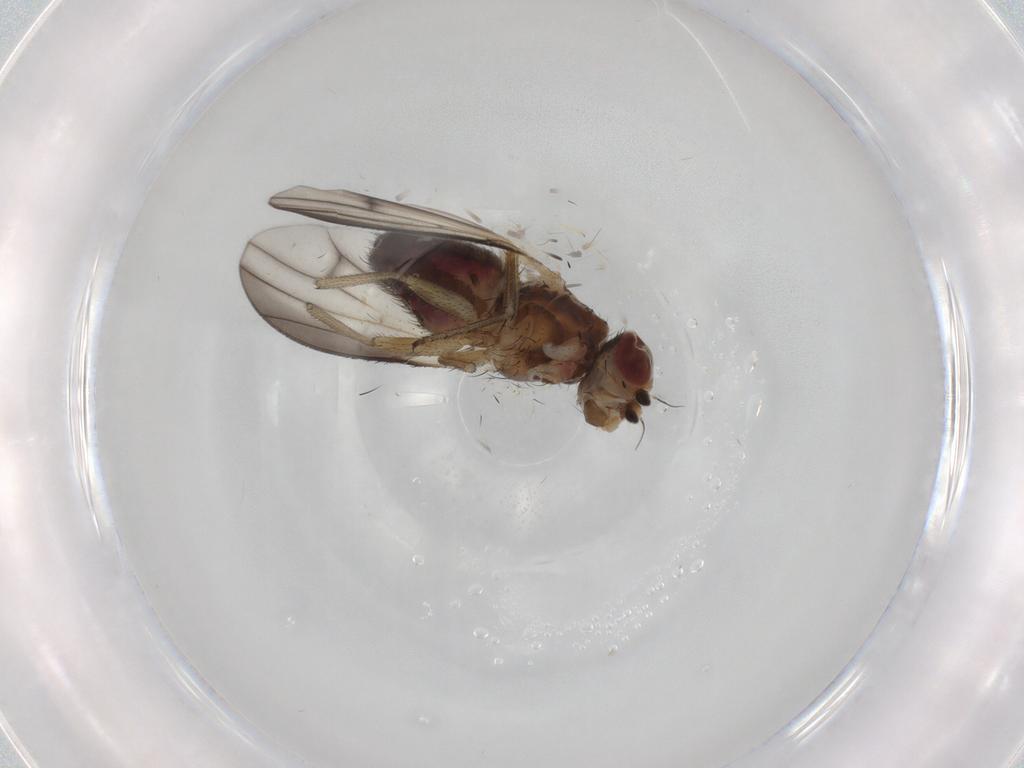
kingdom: Animalia
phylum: Arthropoda
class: Insecta
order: Diptera
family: Heleomyzidae
